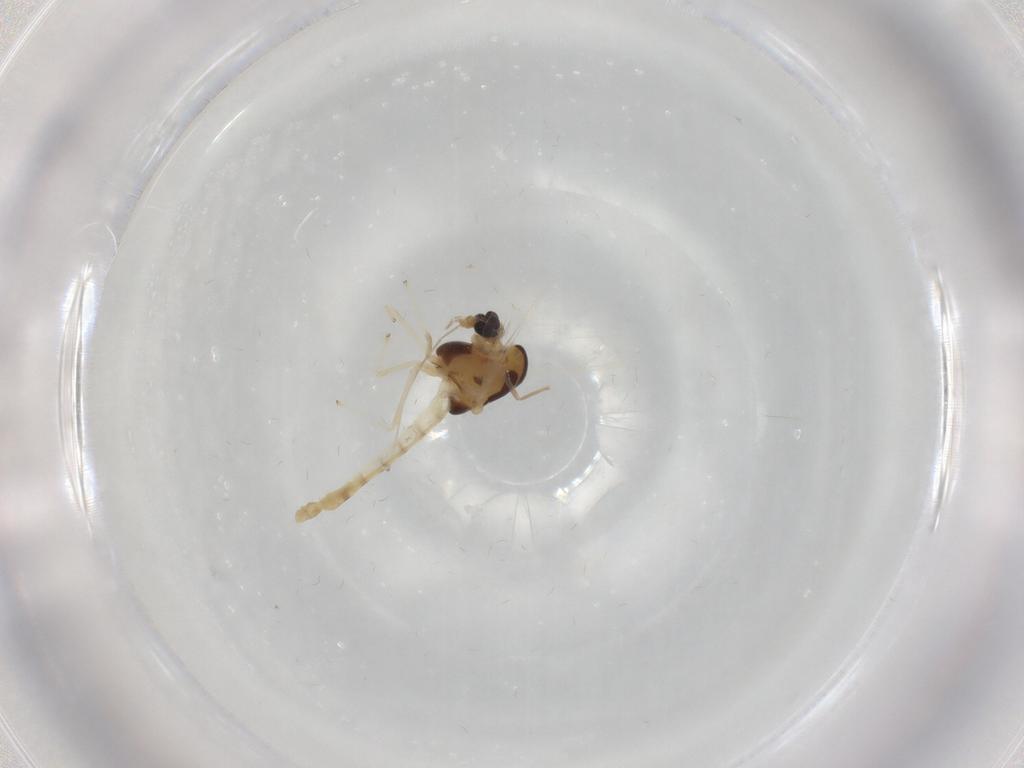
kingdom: Animalia
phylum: Arthropoda
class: Insecta
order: Diptera
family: Chironomidae
